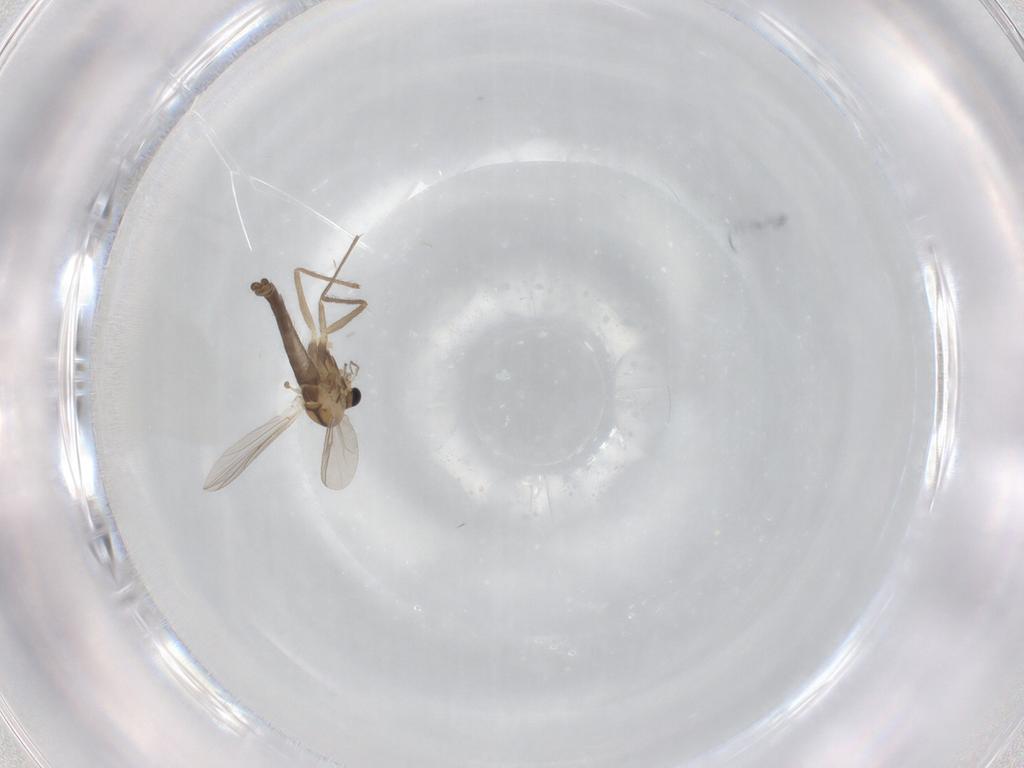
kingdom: Animalia
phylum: Arthropoda
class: Insecta
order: Diptera
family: Chironomidae
